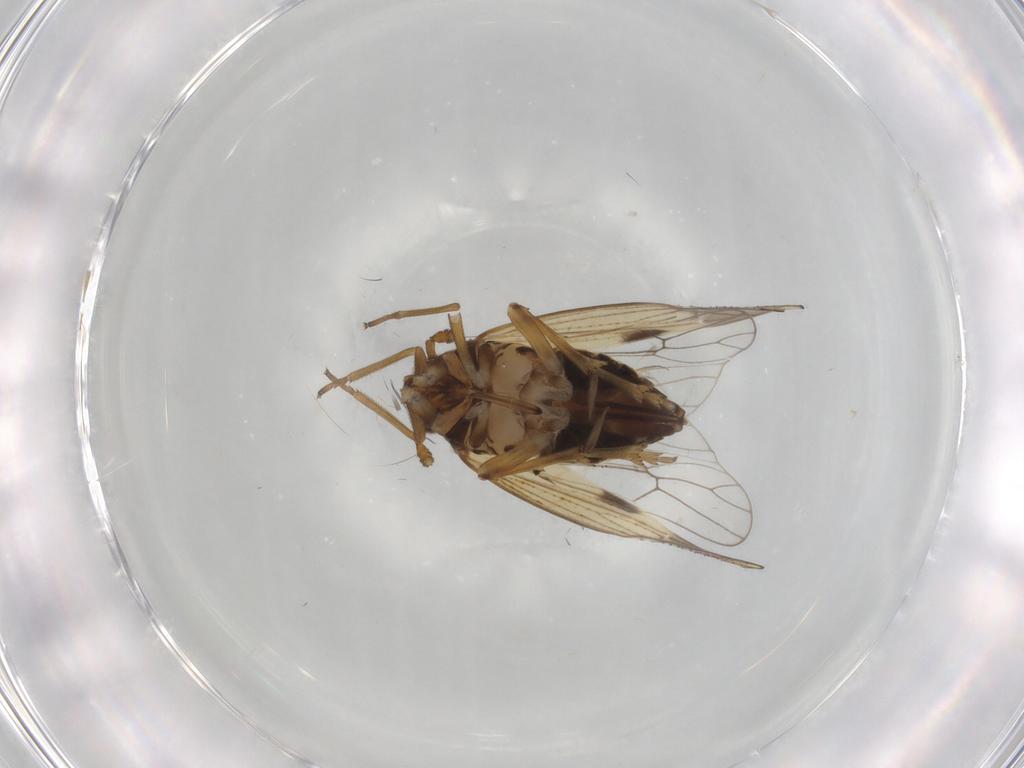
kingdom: Animalia
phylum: Arthropoda
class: Insecta
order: Hemiptera
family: Delphacidae
